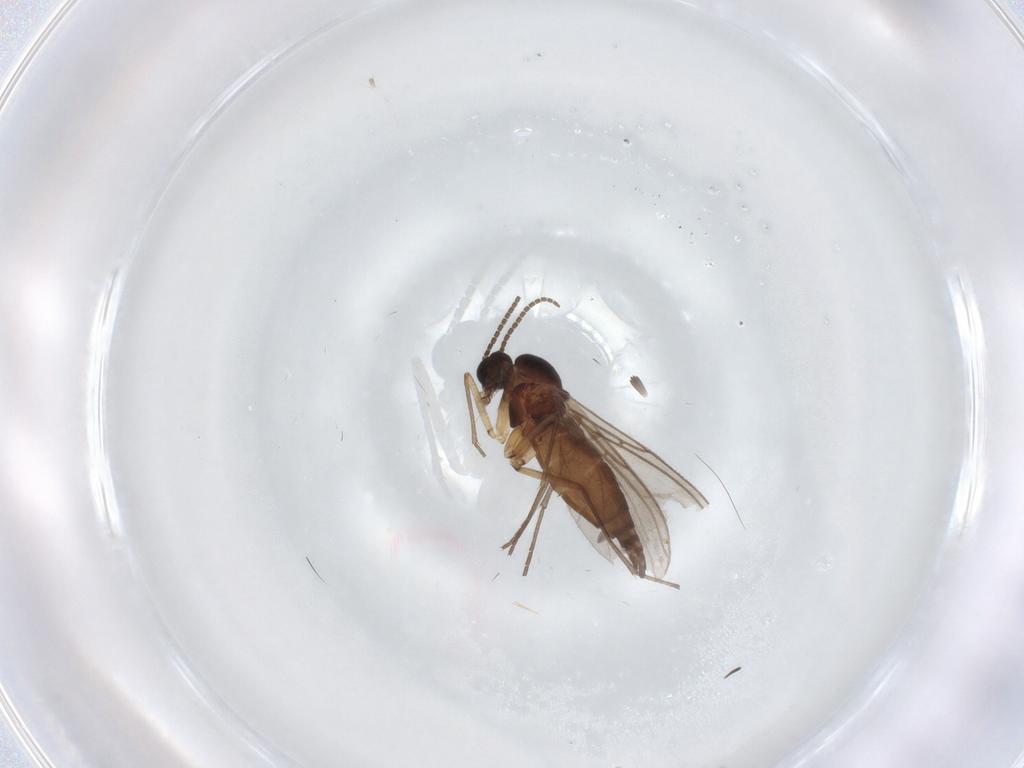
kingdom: Animalia
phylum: Arthropoda
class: Insecta
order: Diptera
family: Sciaridae
